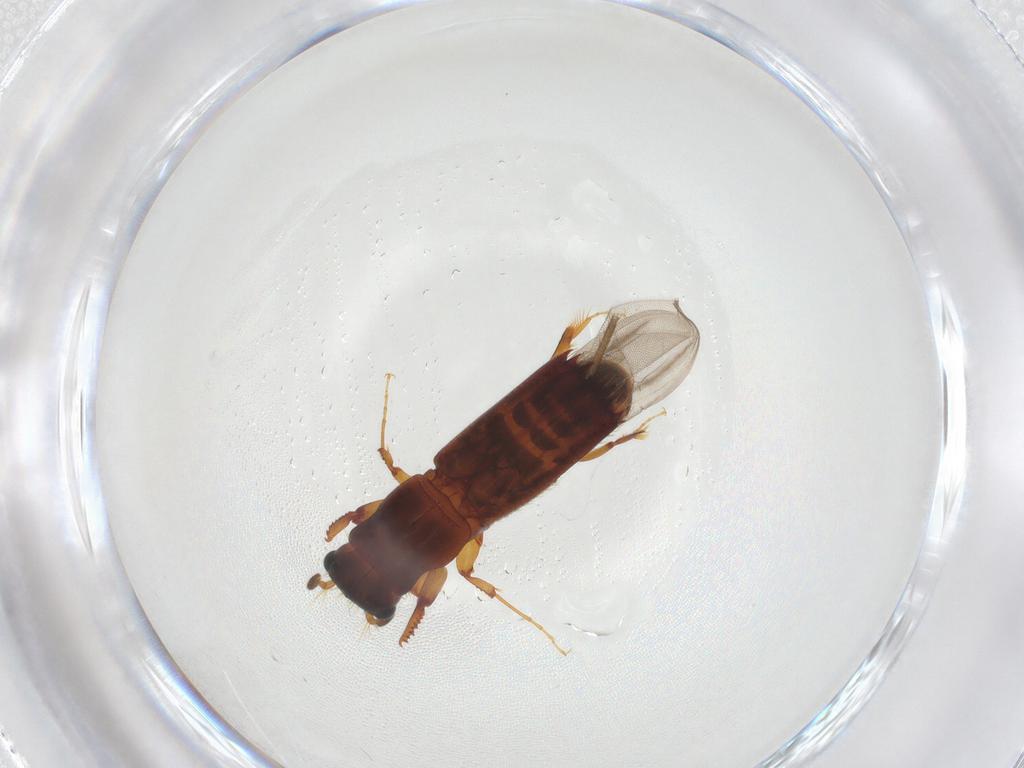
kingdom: Animalia
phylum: Arthropoda
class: Insecta
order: Coleoptera
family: Curculionidae
